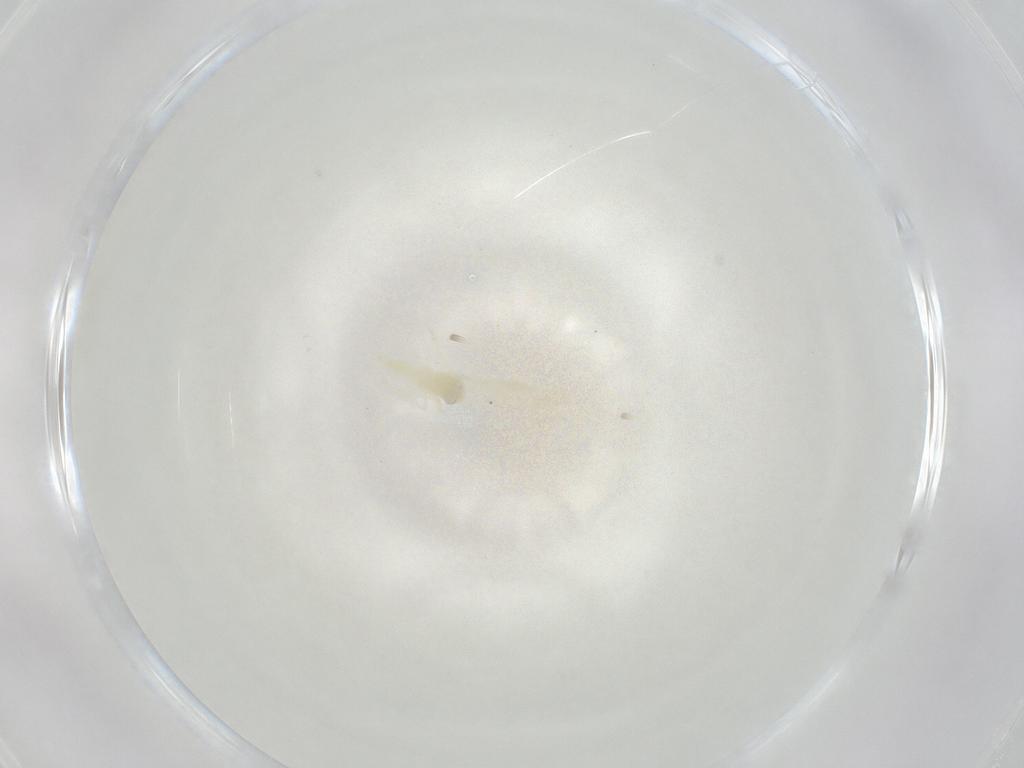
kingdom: Animalia
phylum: Arthropoda
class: Insecta
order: Hemiptera
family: Aleyrodidae
